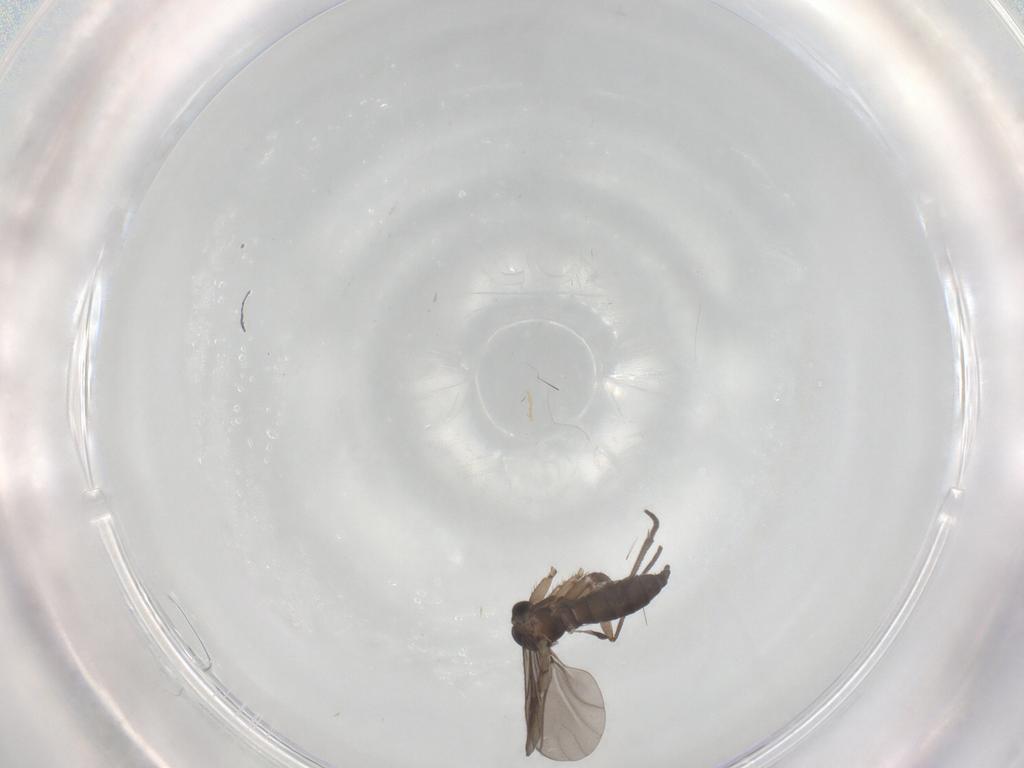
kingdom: Animalia
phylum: Arthropoda
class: Insecta
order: Diptera
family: Sciaridae
